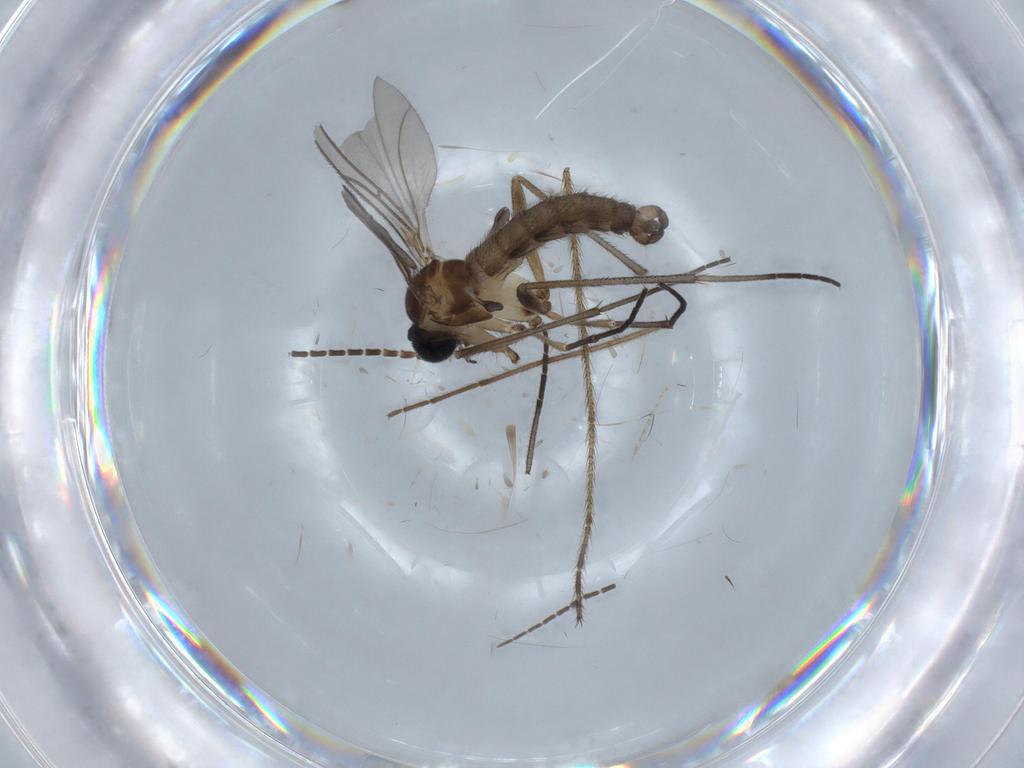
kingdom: Animalia
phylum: Arthropoda
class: Insecta
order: Diptera
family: Sciaridae
